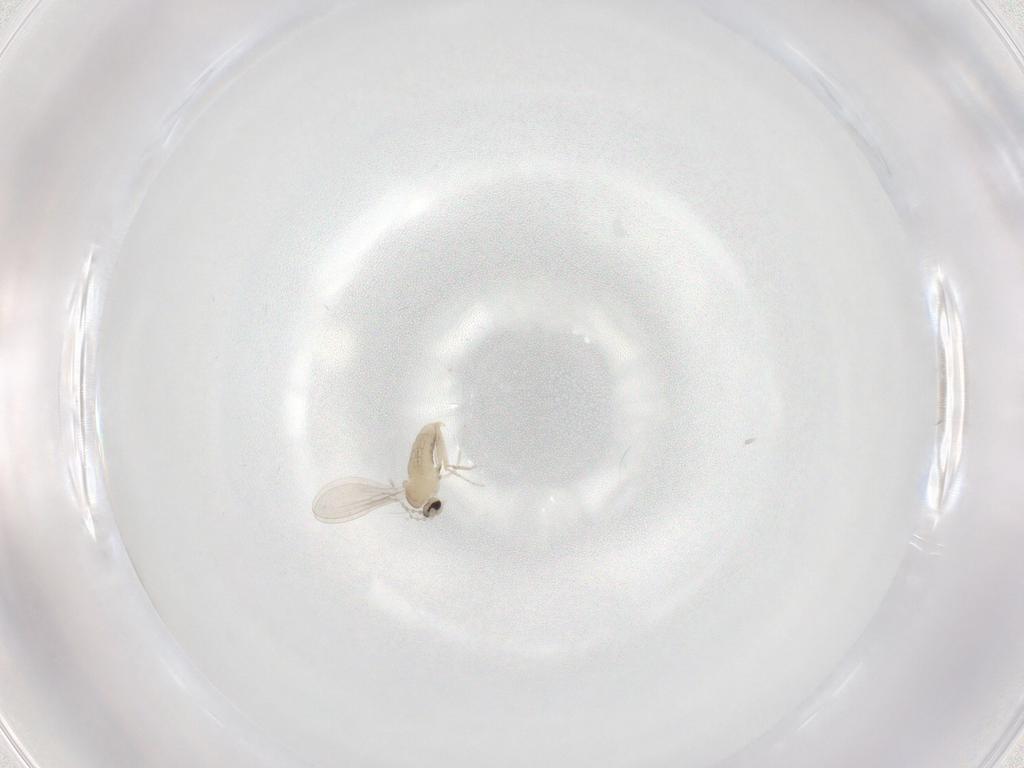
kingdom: Animalia
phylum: Arthropoda
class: Insecta
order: Diptera
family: Cecidomyiidae
